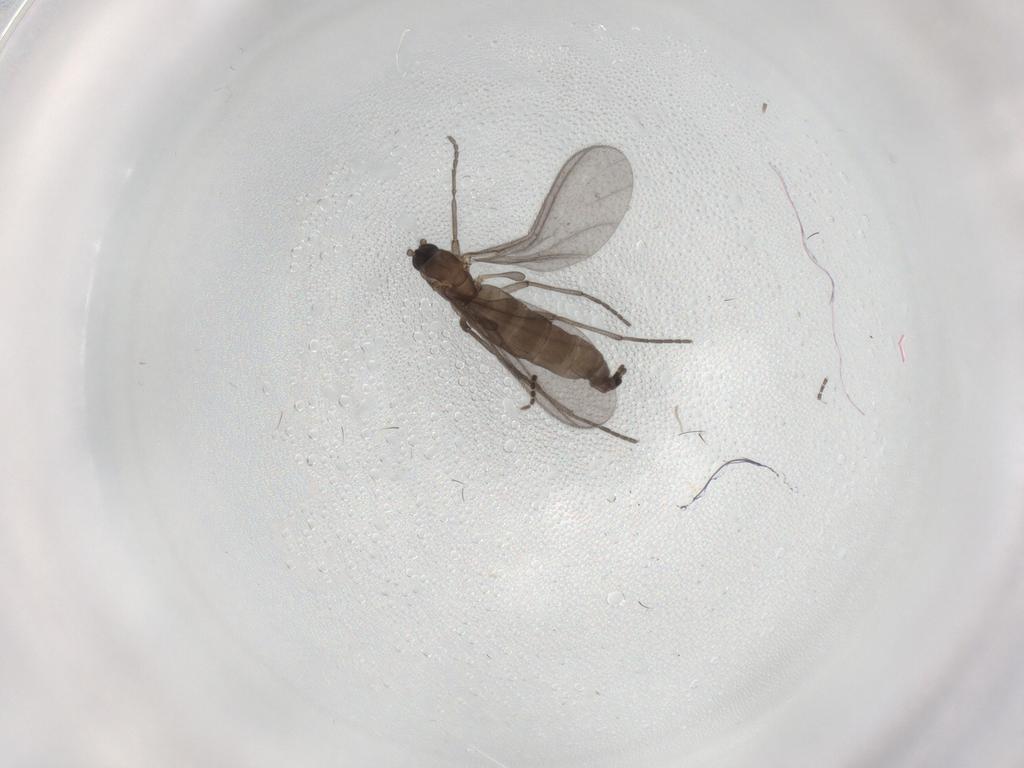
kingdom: Animalia
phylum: Arthropoda
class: Insecta
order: Diptera
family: Sciaridae
